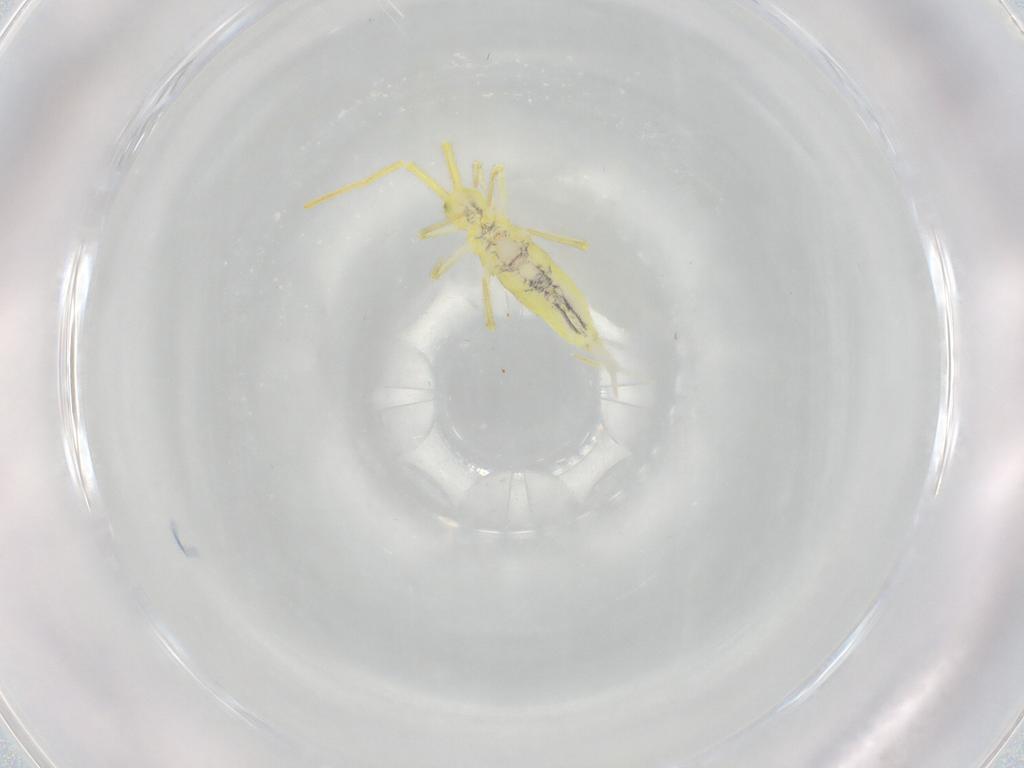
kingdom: Animalia
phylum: Arthropoda
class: Collembola
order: Entomobryomorpha
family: Entomobryidae
